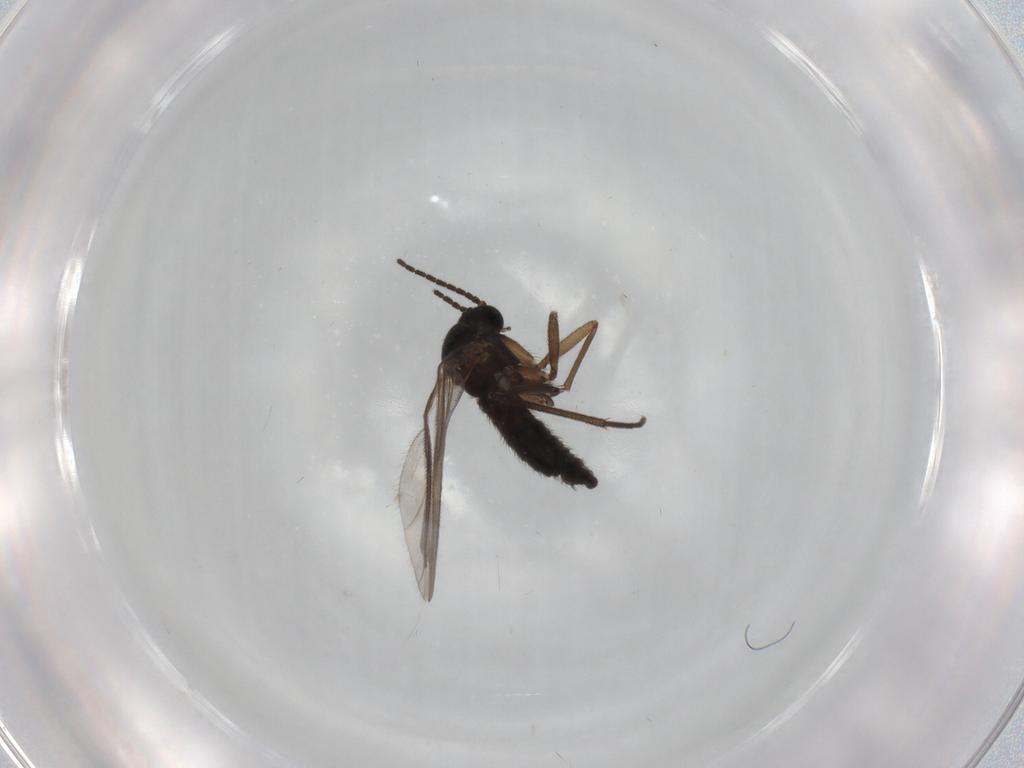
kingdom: Animalia
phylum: Arthropoda
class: Insecta
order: Diptera
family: Sciaridae
